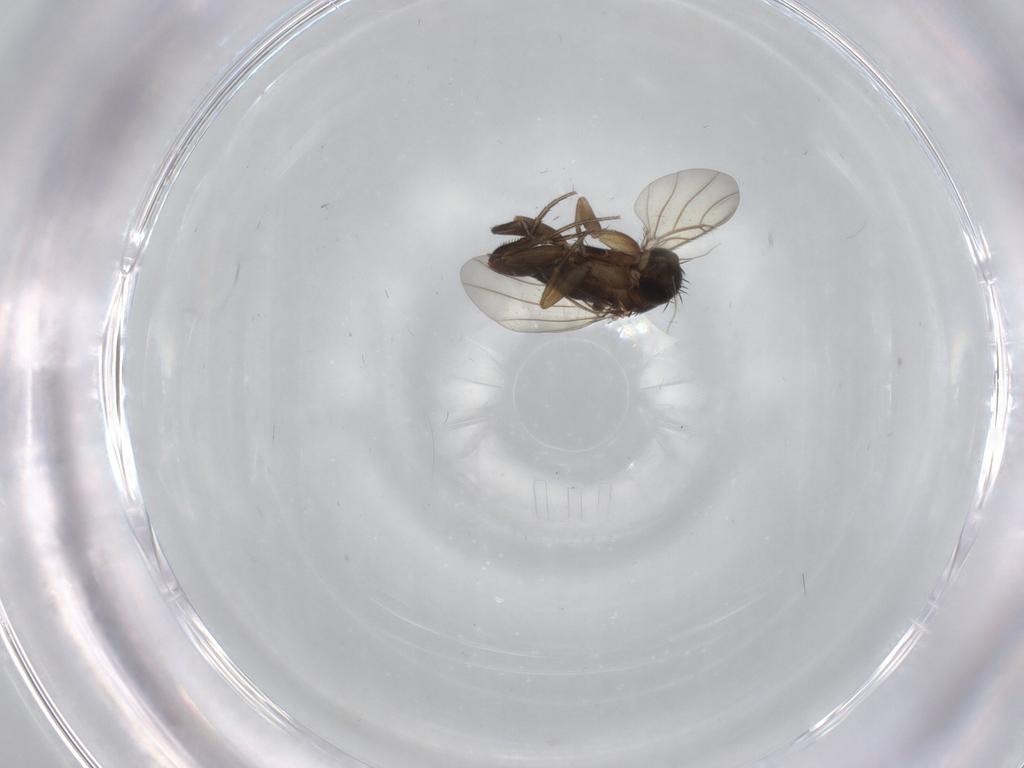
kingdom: Animalia
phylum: Arthropoda
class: Insecta
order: Diptera
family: Phoridae
